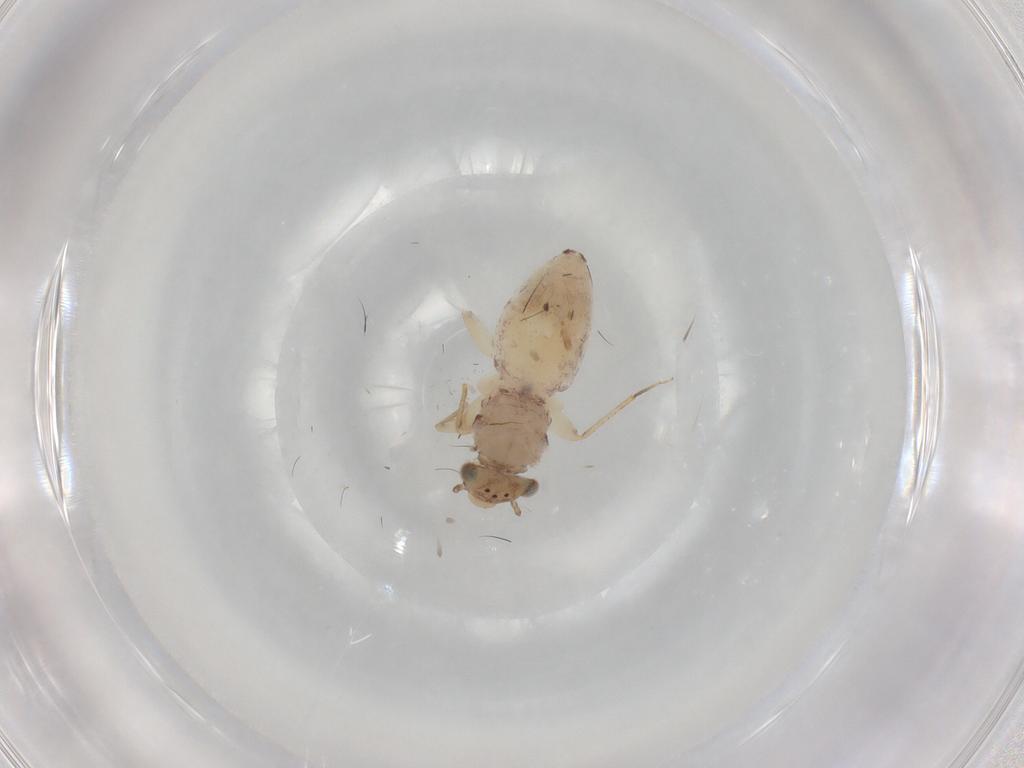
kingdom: Animalia
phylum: Arthropoda
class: Insecta
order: Psocodea
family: Lepidopsocidae
